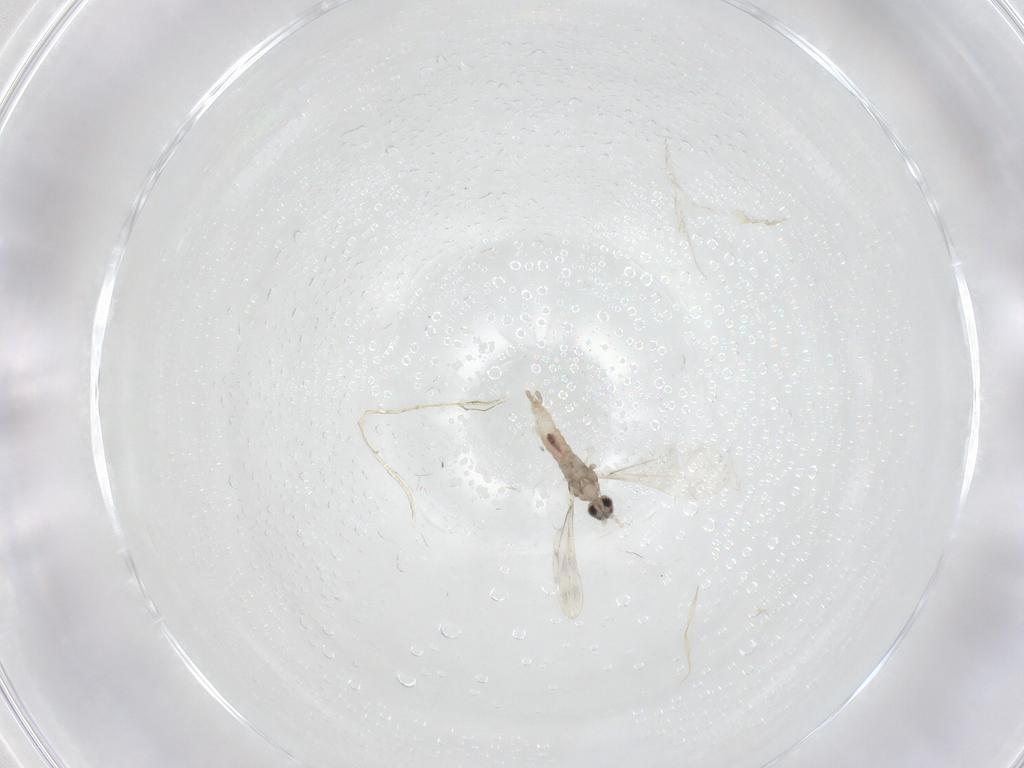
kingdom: Animalia
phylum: Arthropoda
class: Insecta
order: Diptera
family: Cecidomyiidae
